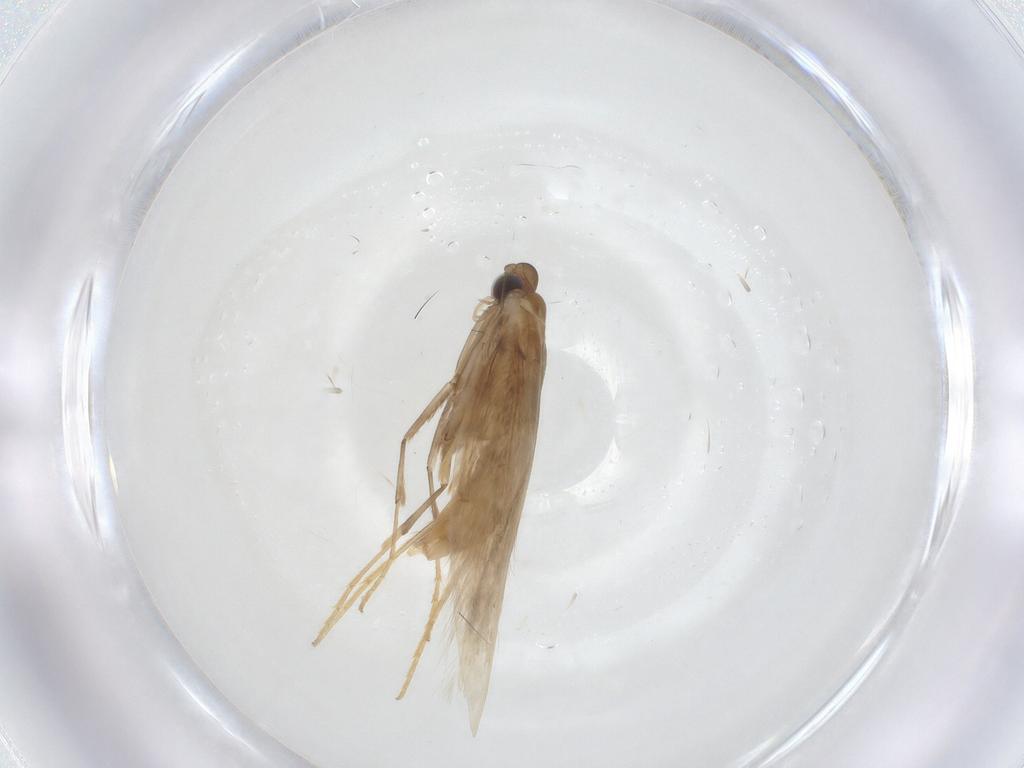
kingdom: Animalia
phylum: Arthropoda
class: Insecta
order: Lepidoptera
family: Tischeriidae
